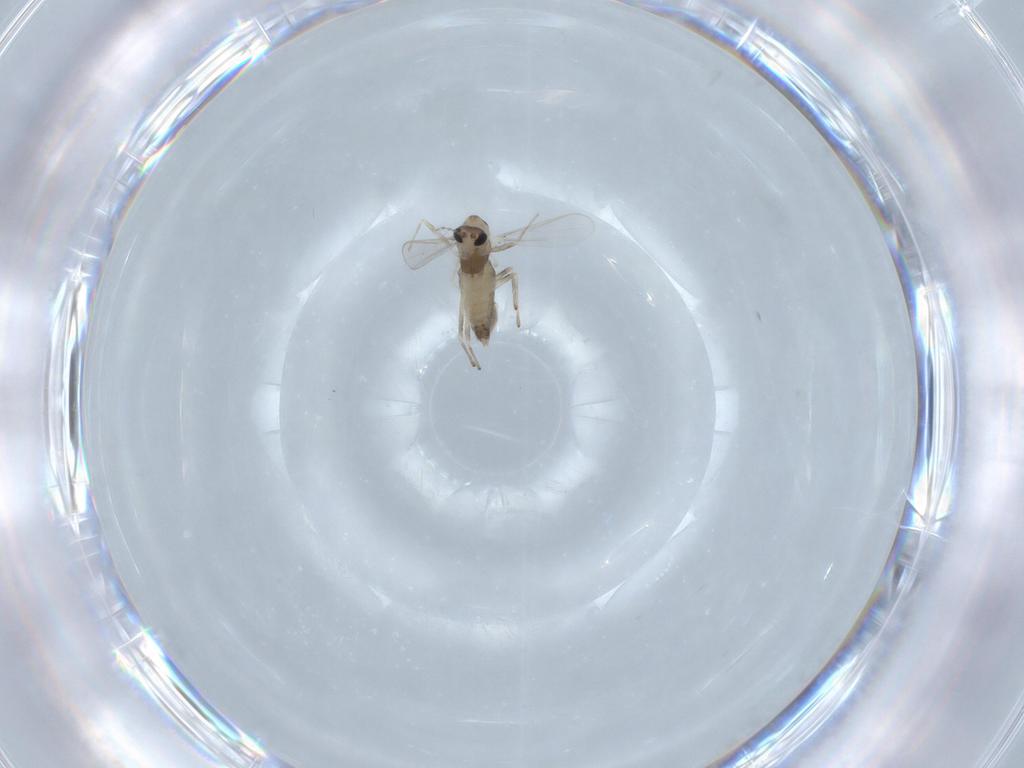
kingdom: Animalia
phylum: Arthropoda
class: Insecta
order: Diptera
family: Chironomidae
